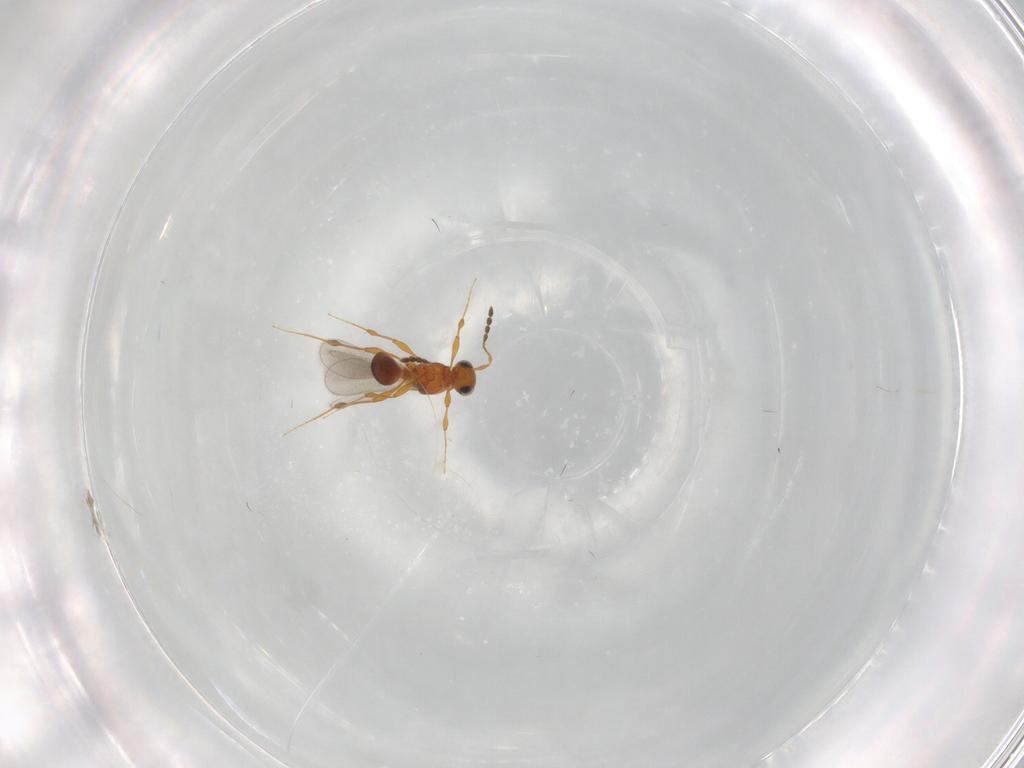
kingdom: Animalia
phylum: Arthropoda
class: Insecta
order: Hymenoptera
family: Platygastridae
